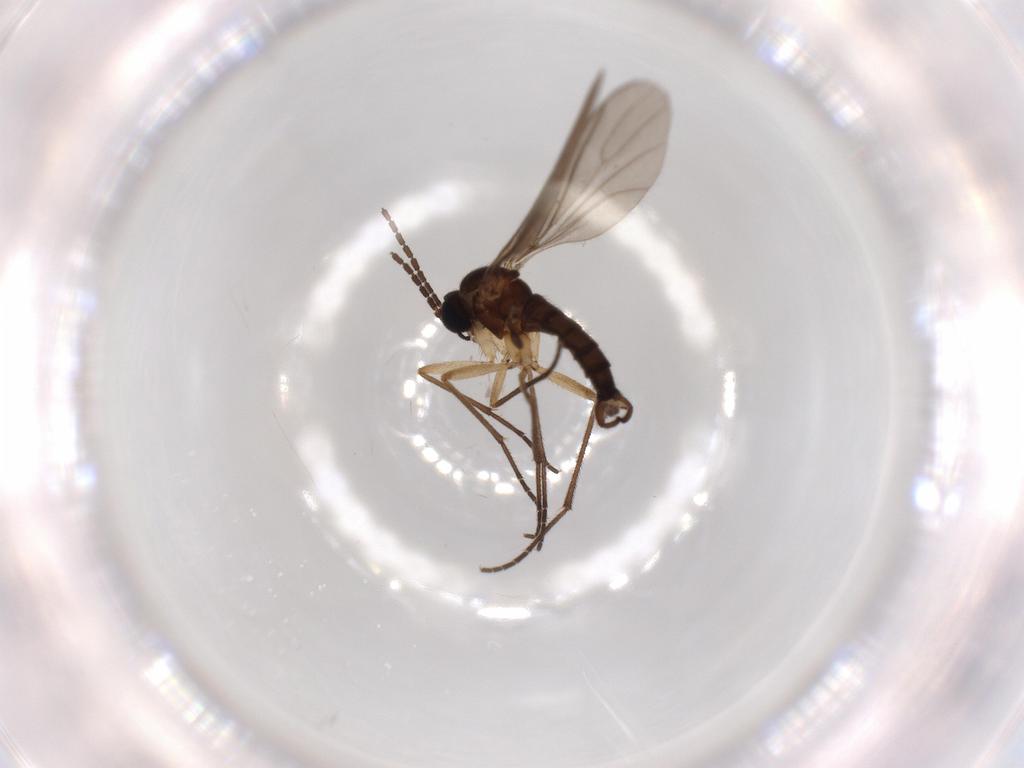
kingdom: Animalia
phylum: Arthropoda
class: Insecta
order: Diptera
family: Sciaridae
